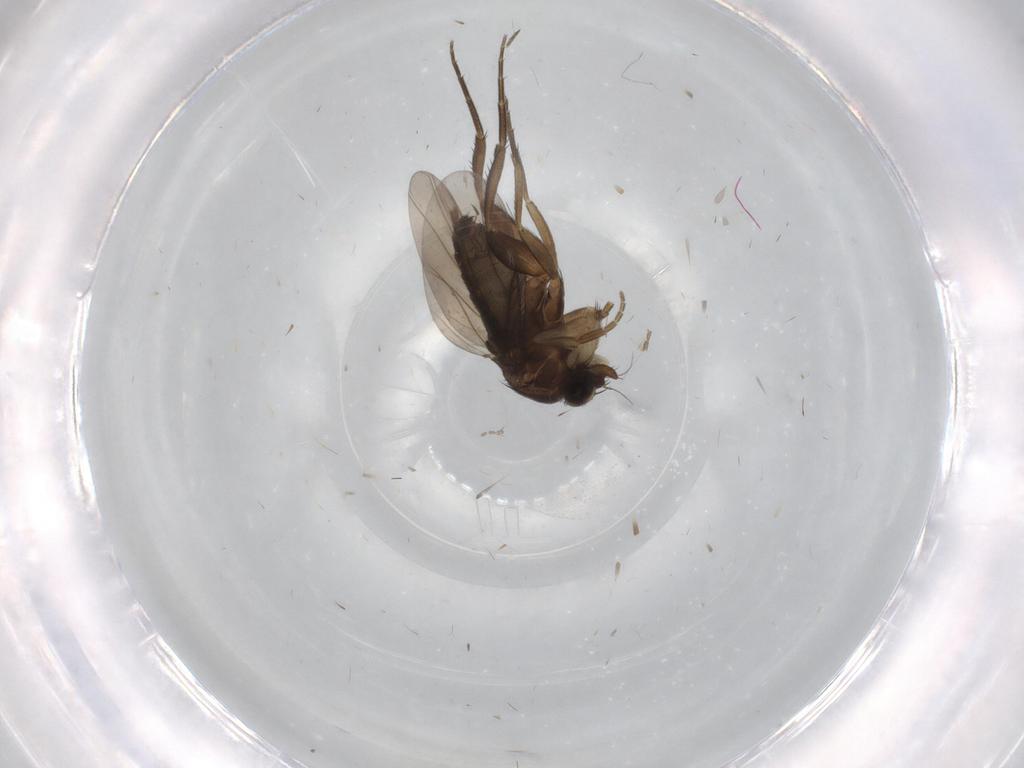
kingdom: Animalia
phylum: Arthropoda
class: Insecta
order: Diptera
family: Phoridae
